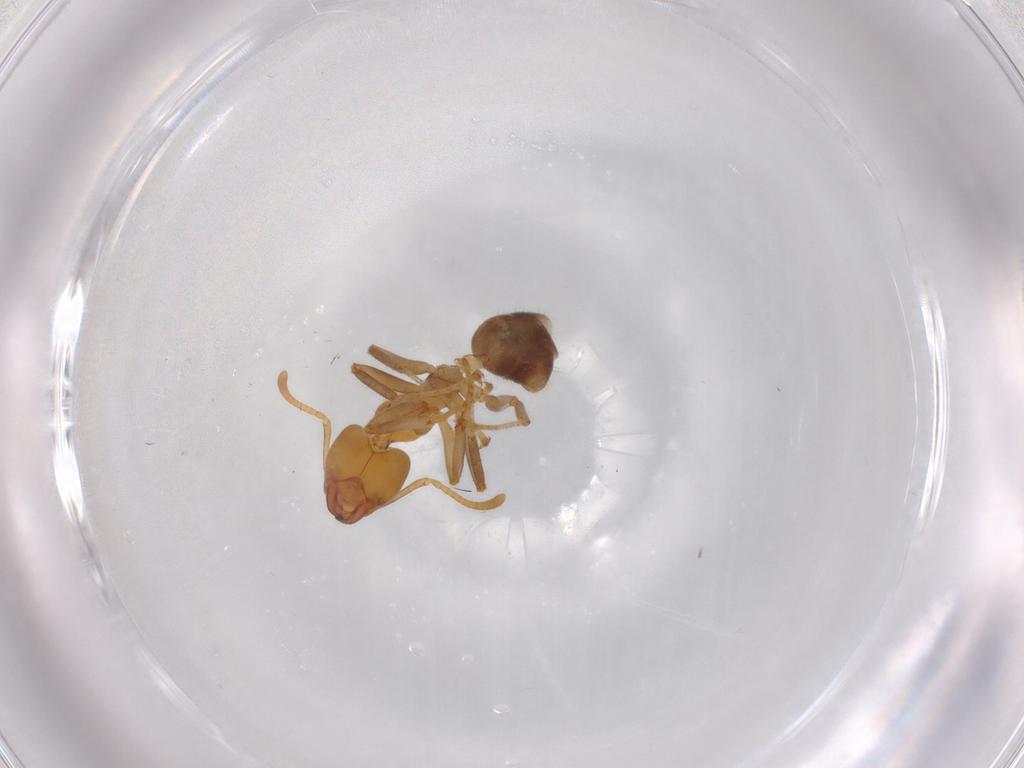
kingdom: Animalia
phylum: Arthropoda
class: Insecta
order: Hymenoptera
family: Formicidae
